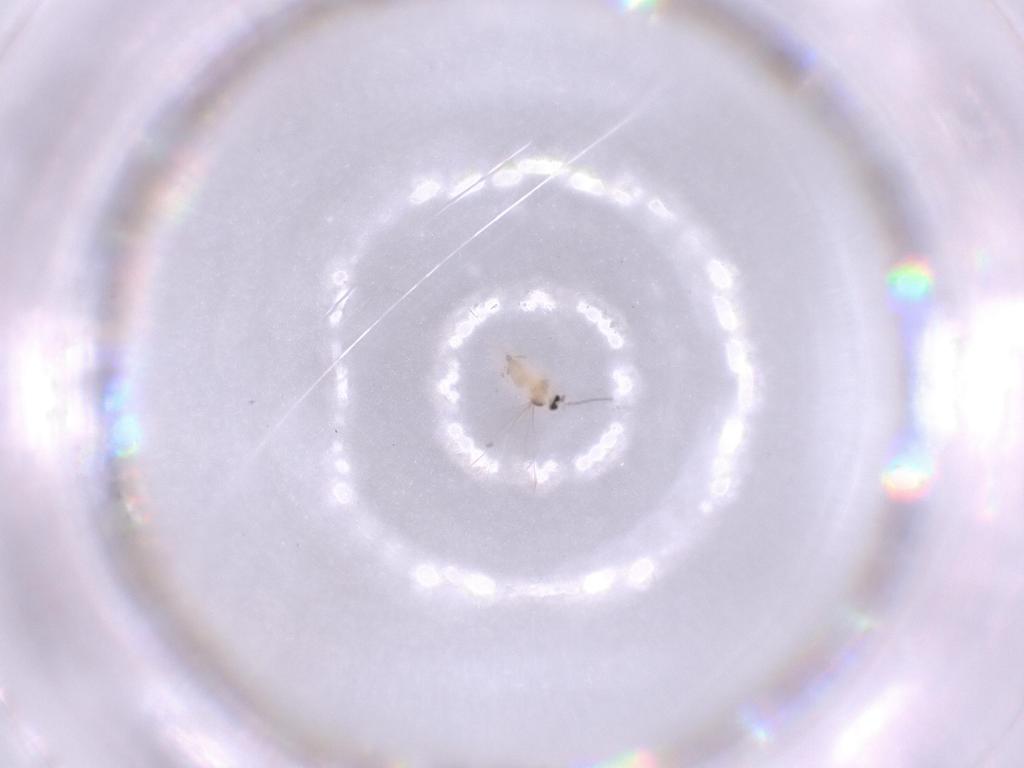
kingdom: Animalia
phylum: Arthropoda
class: Insecta
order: Diptera
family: Cecidomyiidae
